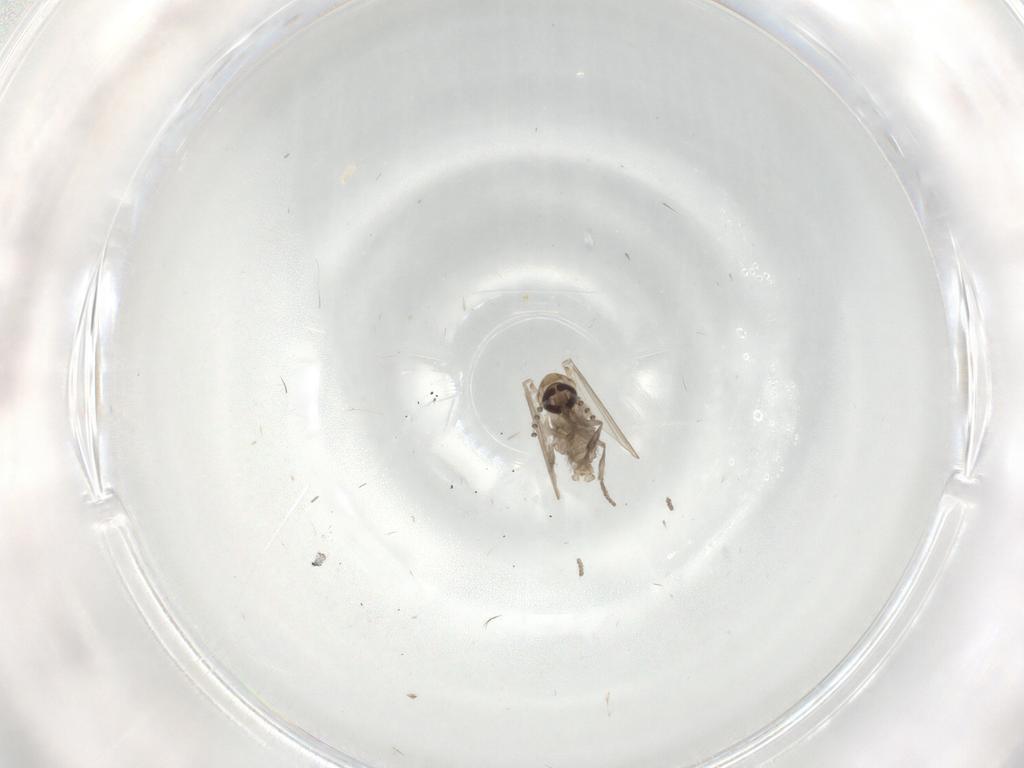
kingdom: Animalia
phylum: Arthropoda
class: Insecta
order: Diptera
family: Psychodidae
